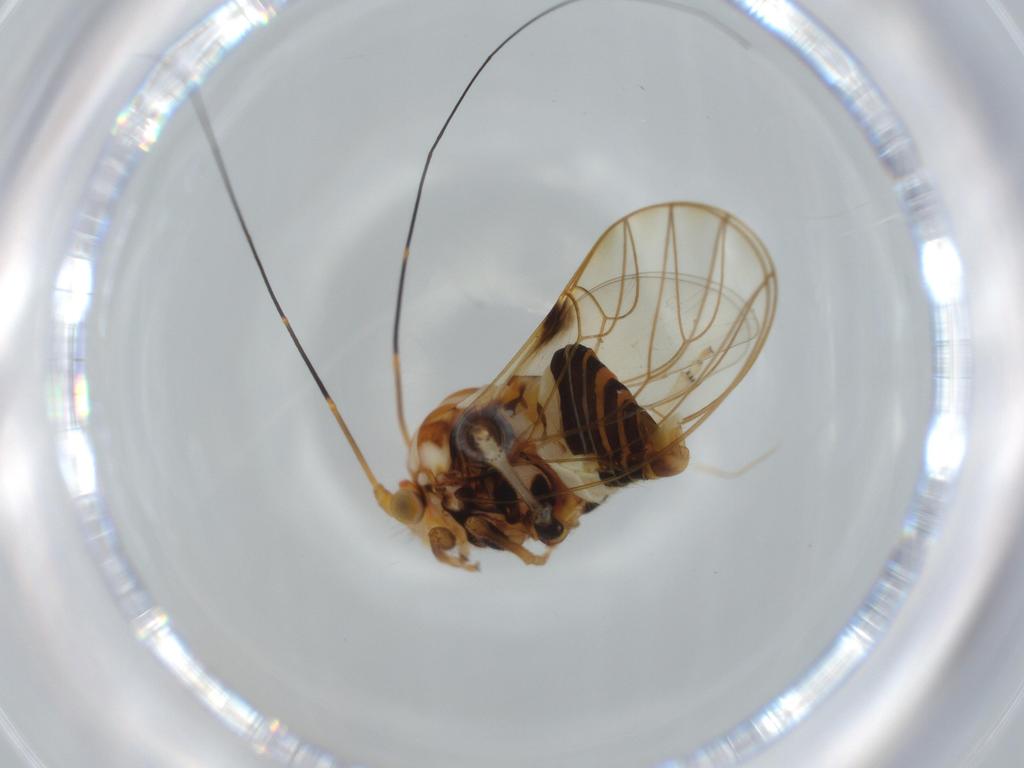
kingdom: Animalia
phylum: Arthropoda
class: Insecta
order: Hemiptera
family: Psyllidae
